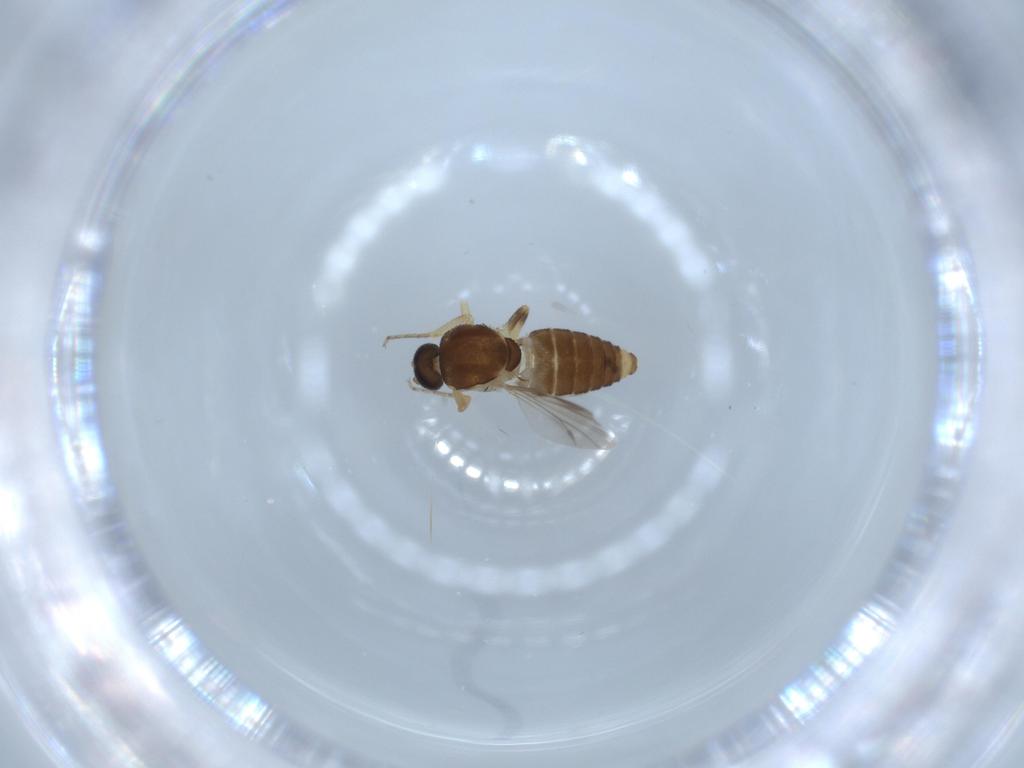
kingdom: Animalia
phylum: Arthropoda
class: Insecta
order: Diptera
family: Ceratopogonidae
